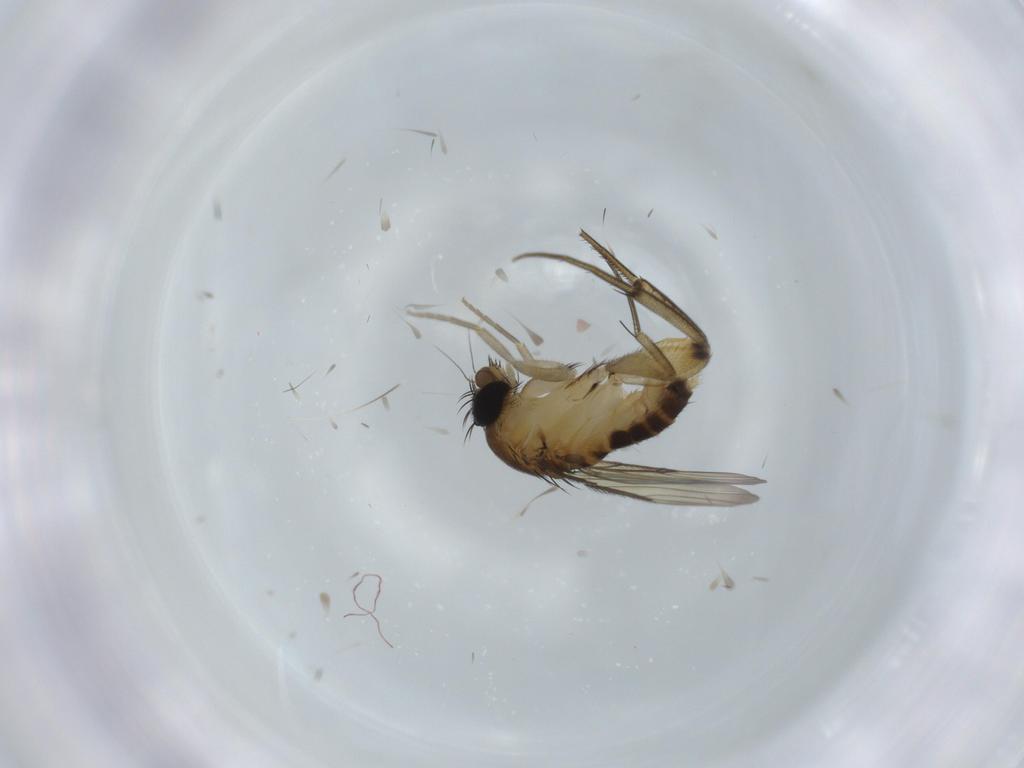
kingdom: Animalia
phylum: Arthropoda
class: Insecta
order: Diptera
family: Phoridae
